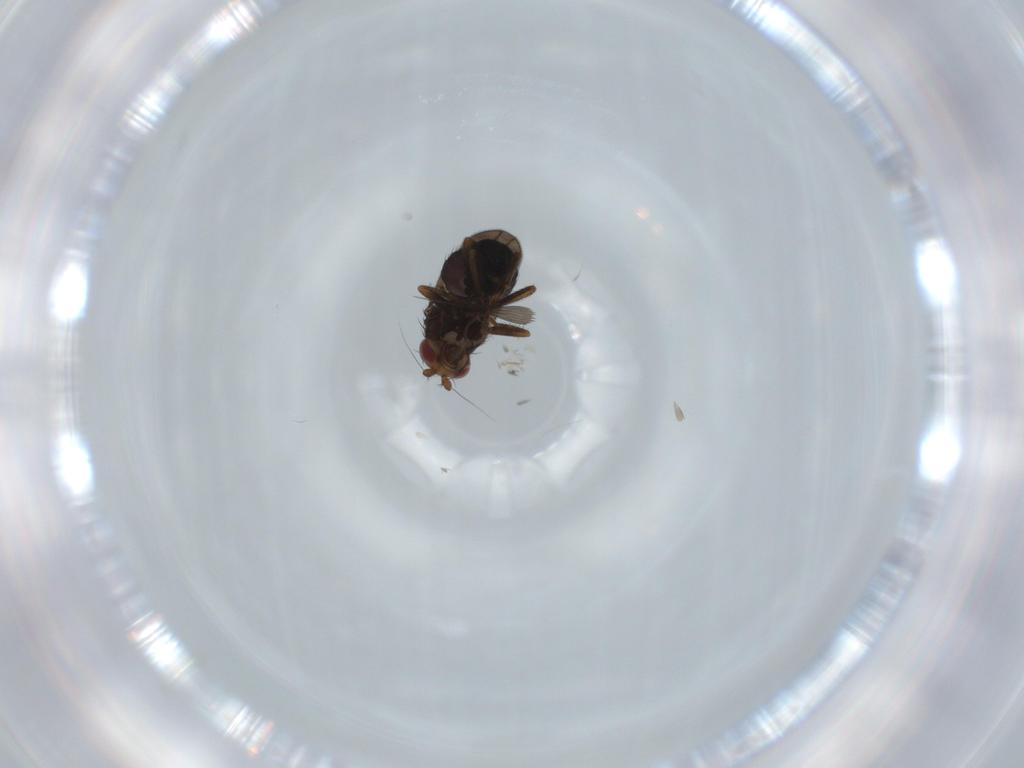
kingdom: Animalia
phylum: Arthropoda
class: Insecta
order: Diptera
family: Sphaeroceridae
